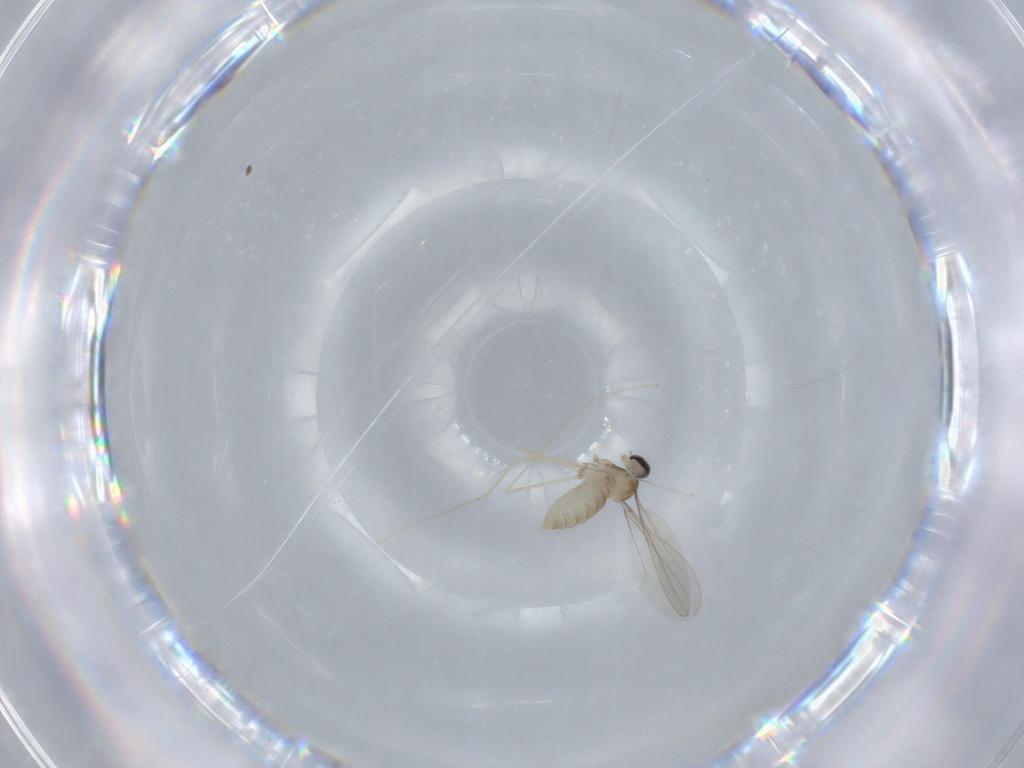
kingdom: Animalia
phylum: Arthropoda
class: Insecta
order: Diptera
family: Cecidomyiidae
